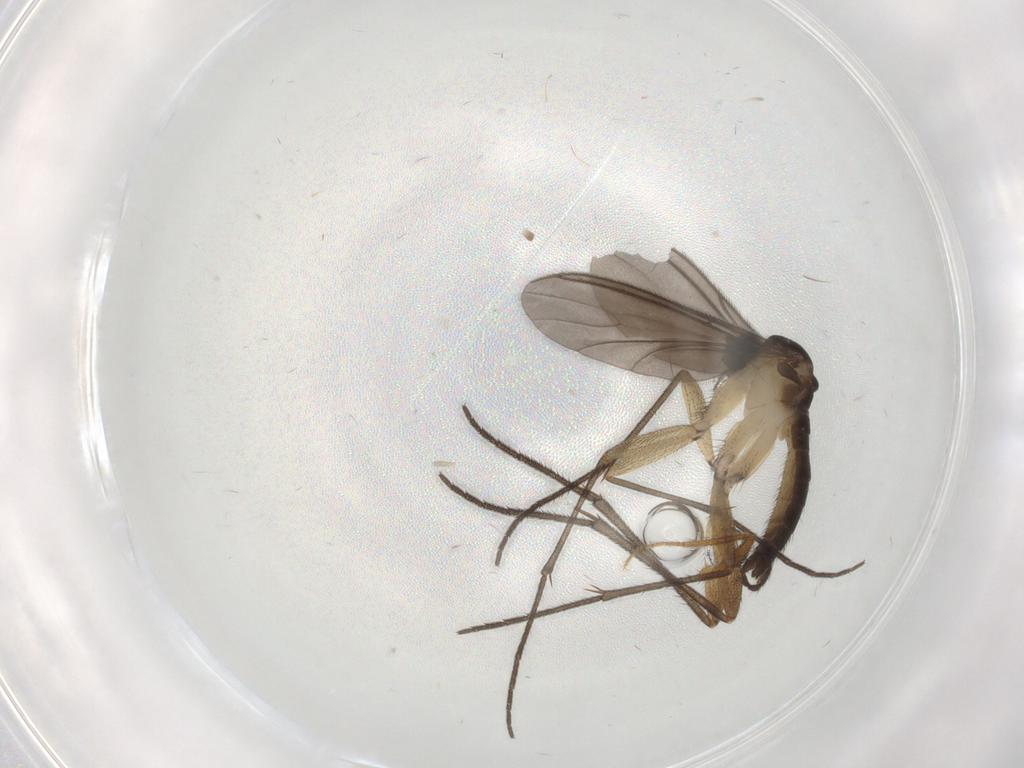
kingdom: Animalia
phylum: Arthropoda
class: Insecta
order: Diptera
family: Sciaridae
